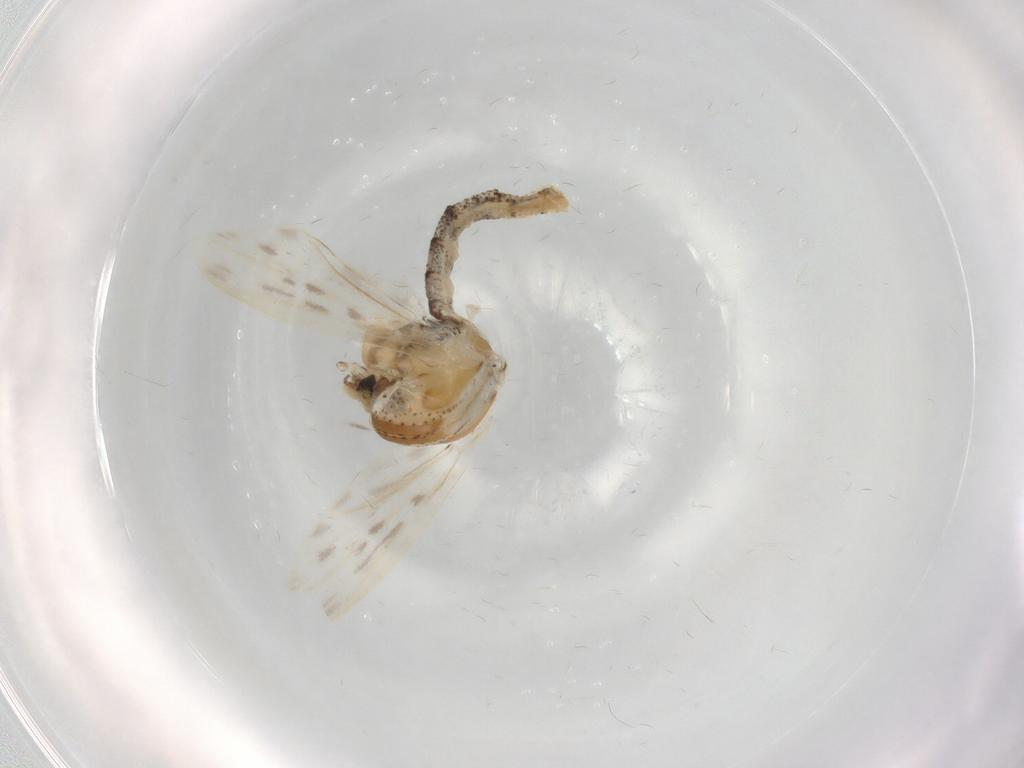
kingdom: Animalia
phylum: Arthropoda
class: Insecta
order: Diptera
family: Chaoboridae
